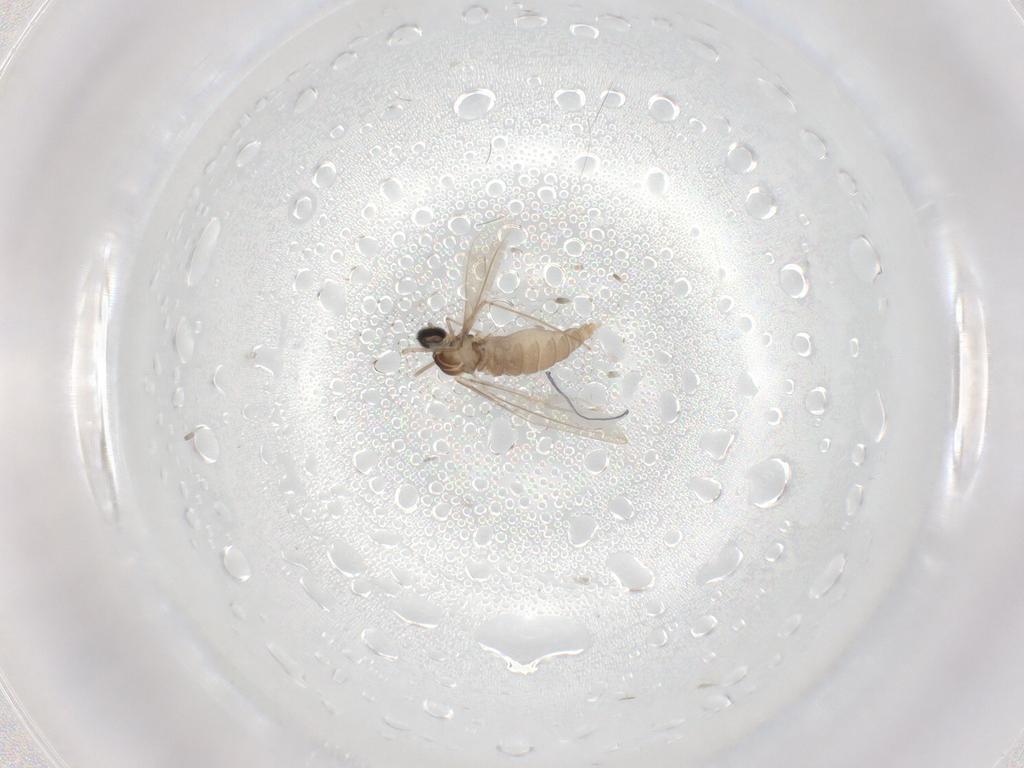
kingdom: Animalia
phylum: Arthropoda
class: Insecta
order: Diptera
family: Cecidomyiidae
